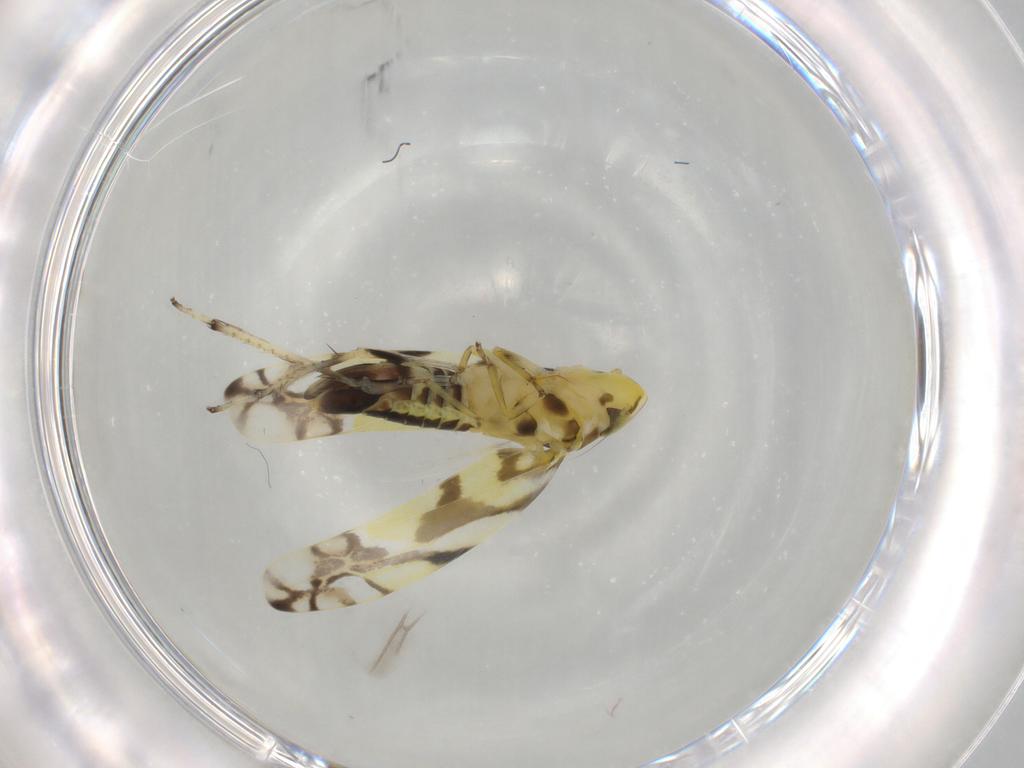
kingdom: Animalia
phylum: Arthropoda
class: Insecta
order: Hemiptera
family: Cicadellidae
